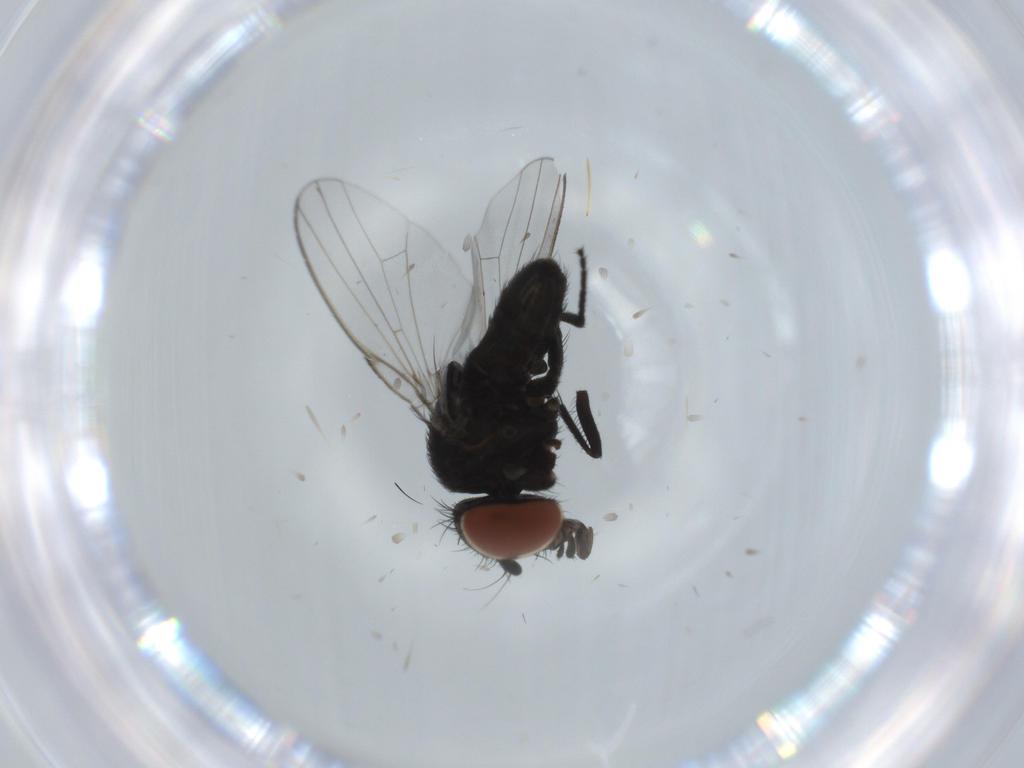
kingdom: Animalia
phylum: Arthropoda
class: Insecta
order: Diptera
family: Milichiidae
